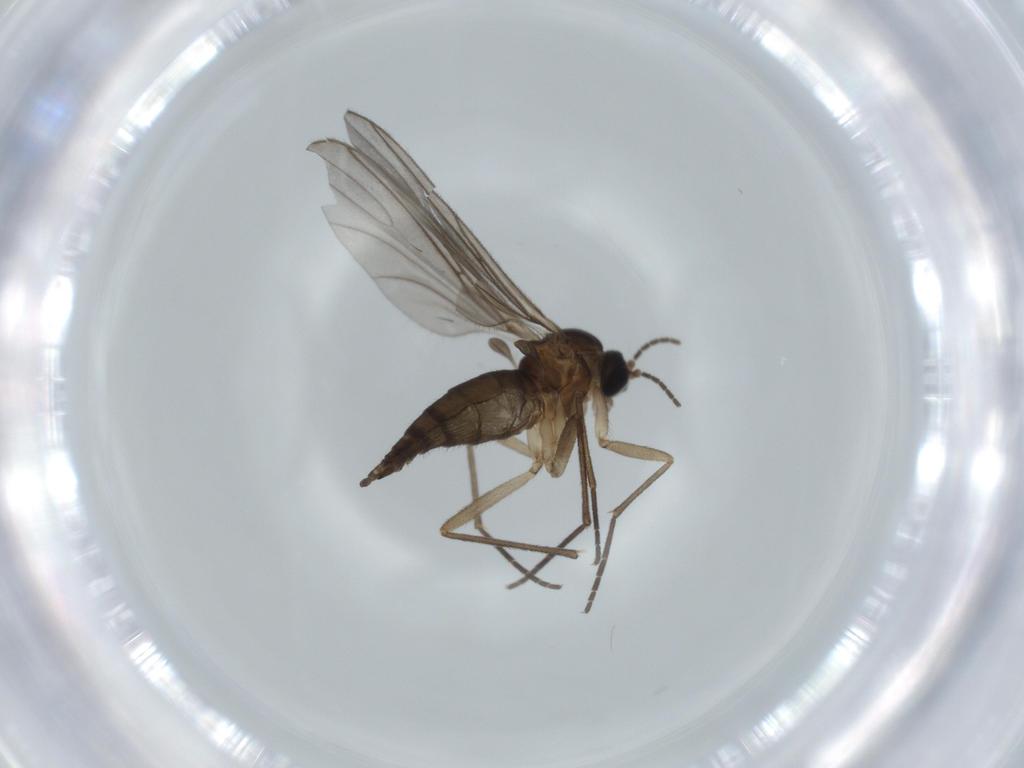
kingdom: Animalia
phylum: Arthropoda
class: Insecta
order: Diptera
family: Sciaridae
